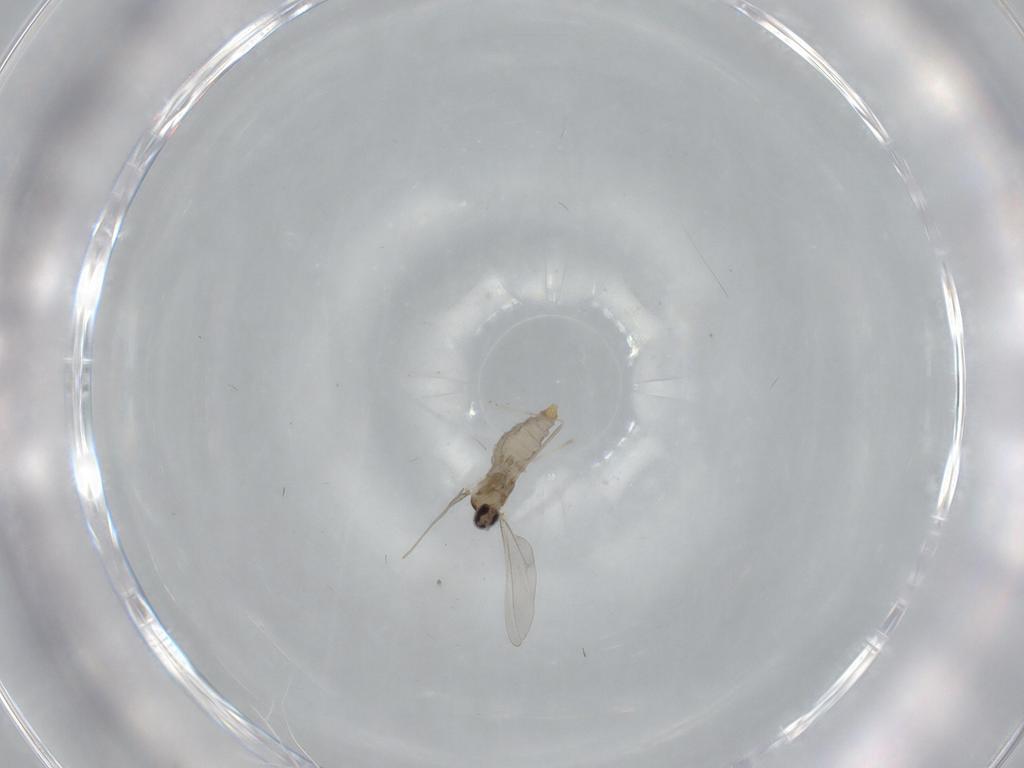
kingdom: Animalia
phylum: Arthropoda
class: Insecta
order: Diptera
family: Cecidomyiidae
